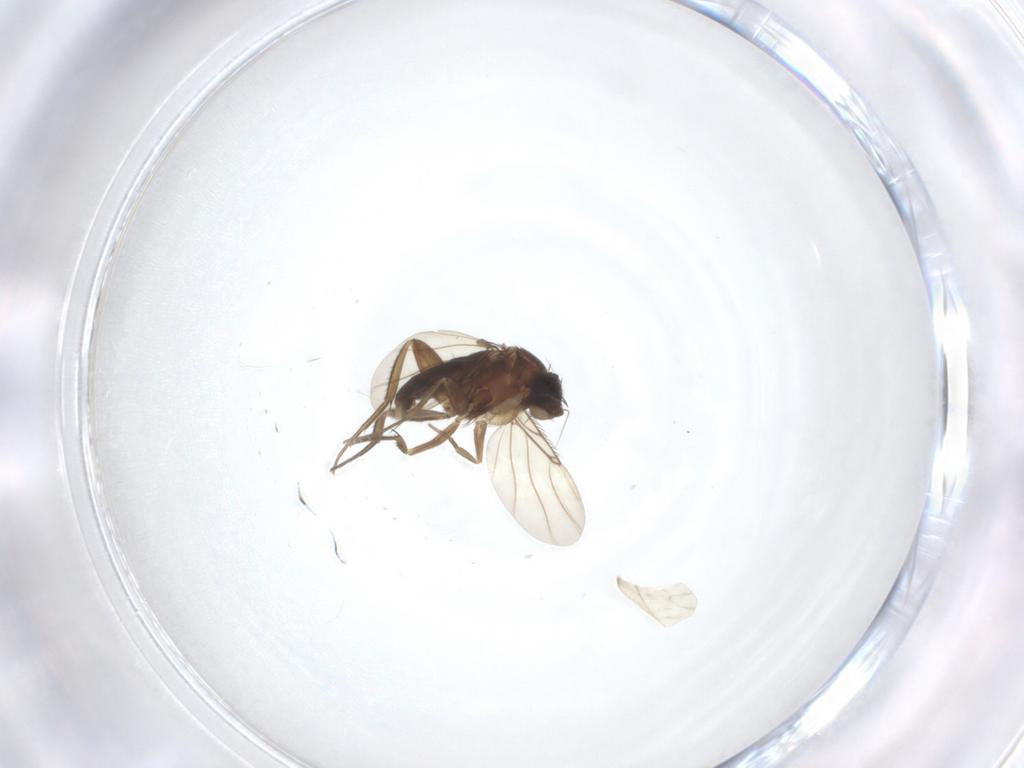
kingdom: Animalia
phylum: Arthropoda
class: Insecta
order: Diptera
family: Phoridae
